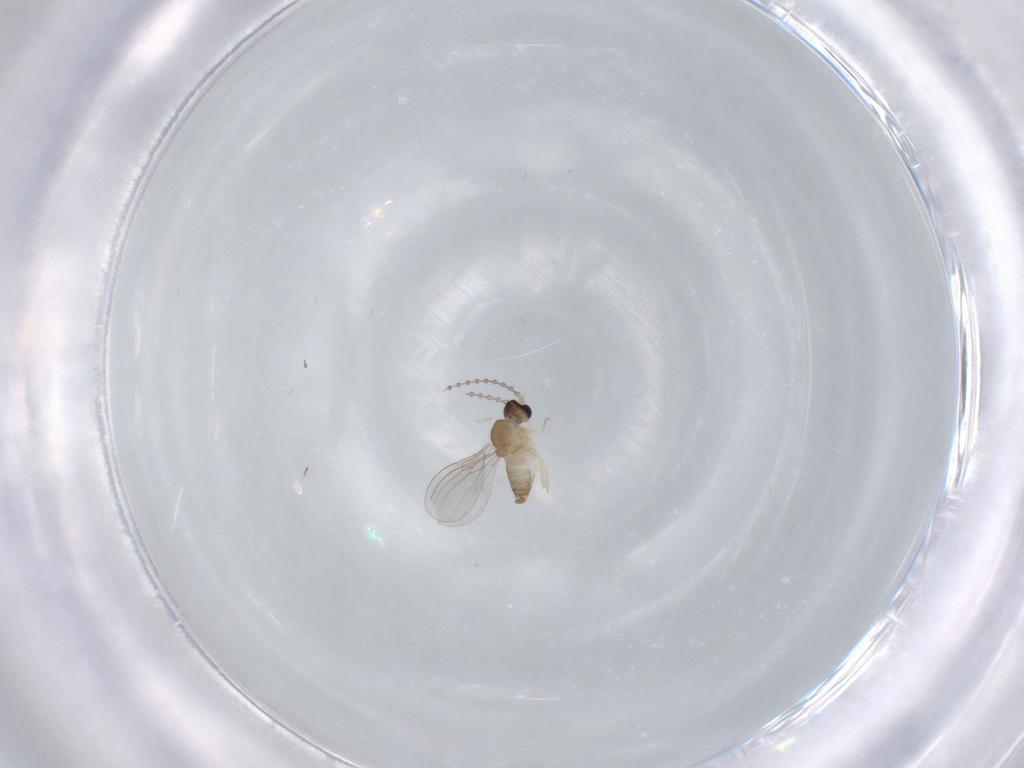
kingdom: Animalia
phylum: Arthropoda
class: Insecta
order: Diptera
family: Cecidomyiidae
